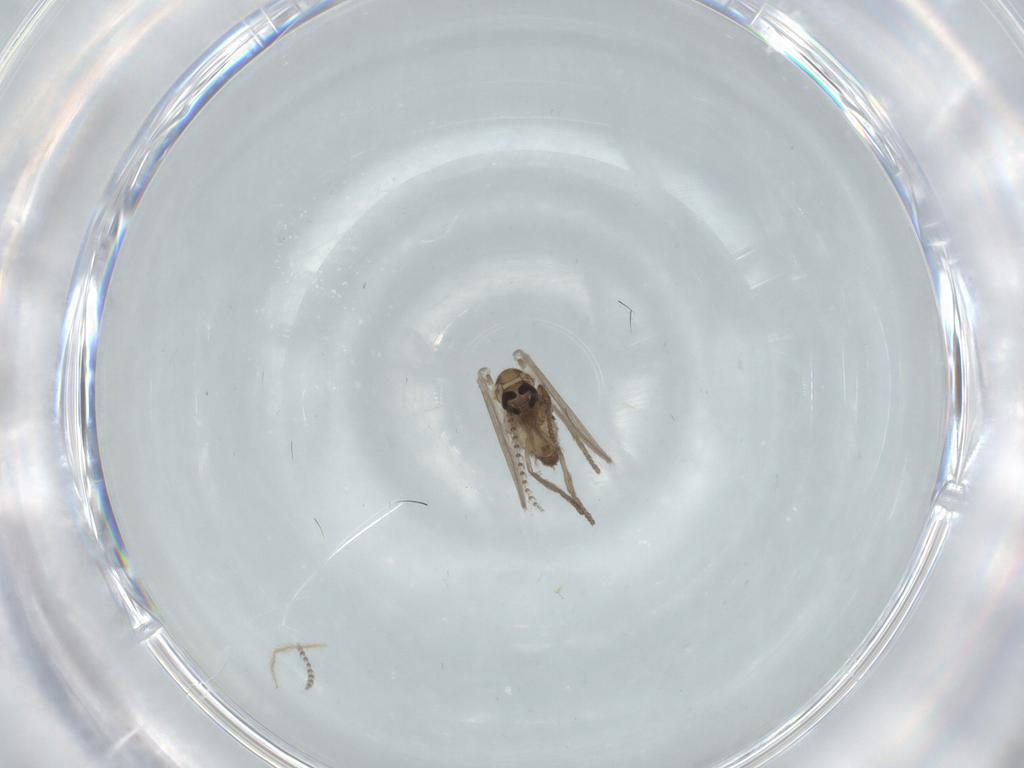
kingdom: Animalia
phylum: Arthropoda
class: Insecta
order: Diptera
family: Psychodidae
